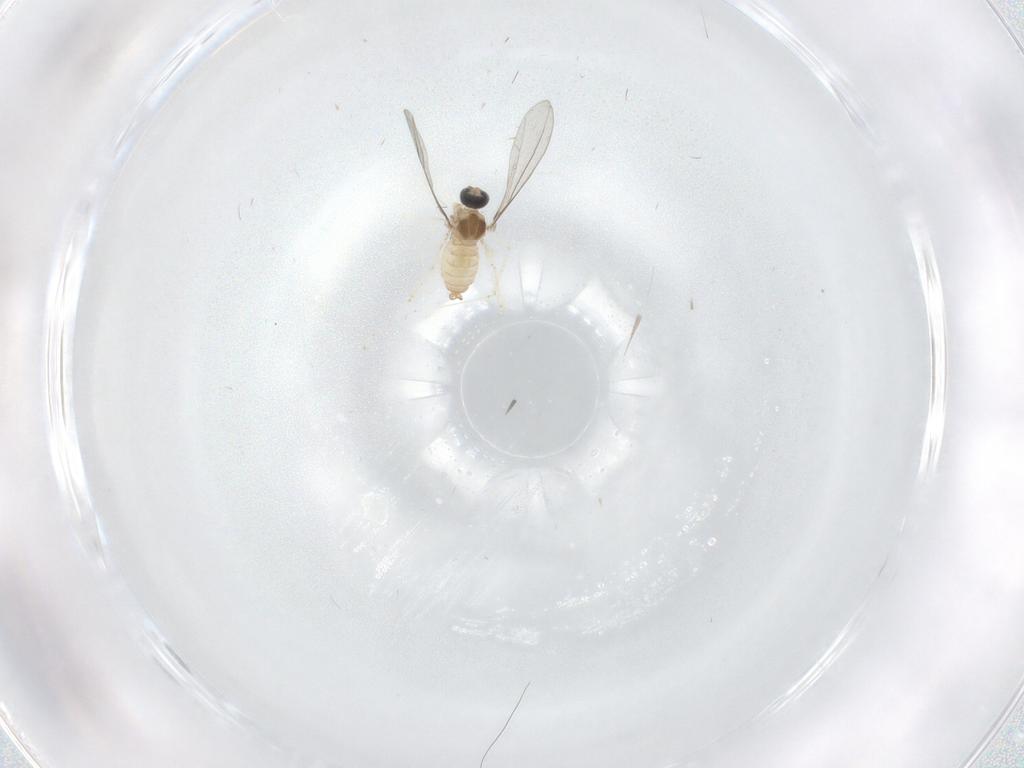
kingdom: Animalia
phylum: Arthropoda
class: Insecta
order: Diptera
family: Cecidomyiidae
